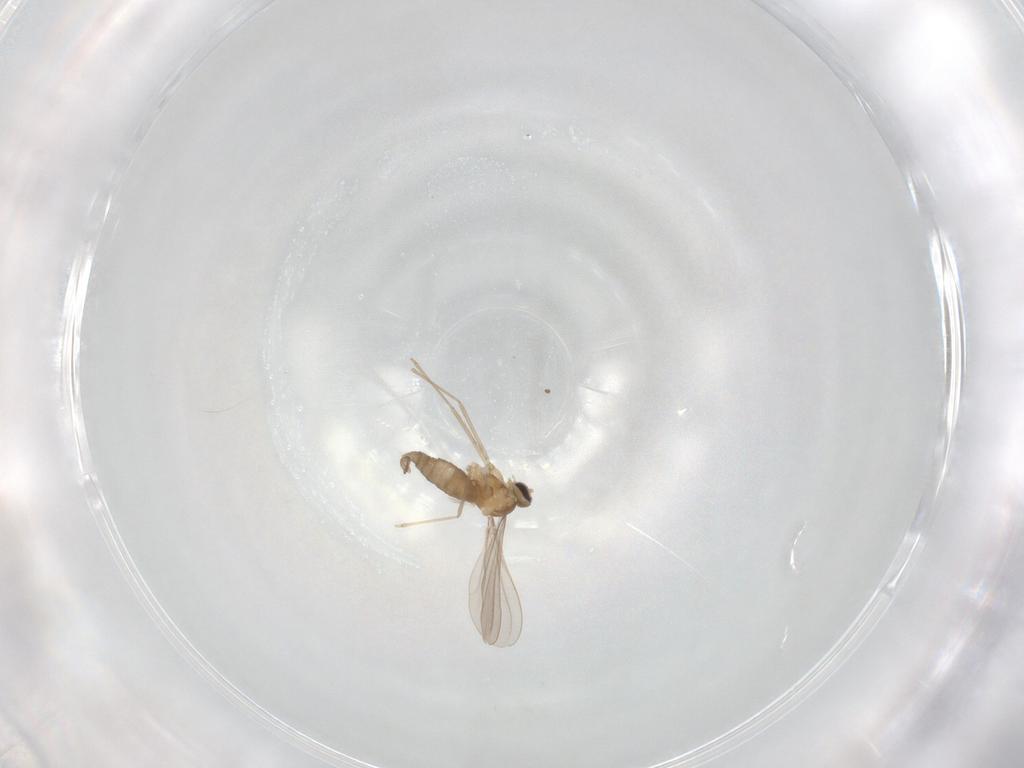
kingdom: Animalia
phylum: Arthropoda
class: Insecta
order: Diptera
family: Cecidomyiidae
